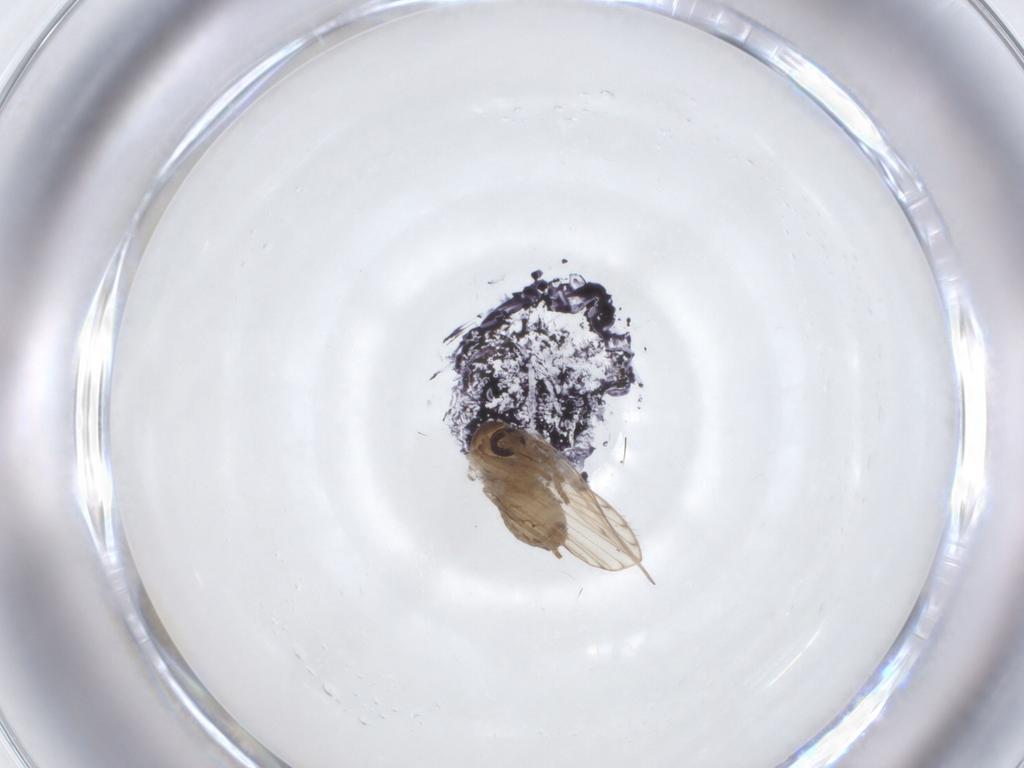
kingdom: Animalia
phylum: Arthropoda
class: Insecta
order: Diptera
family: Psychodidae
